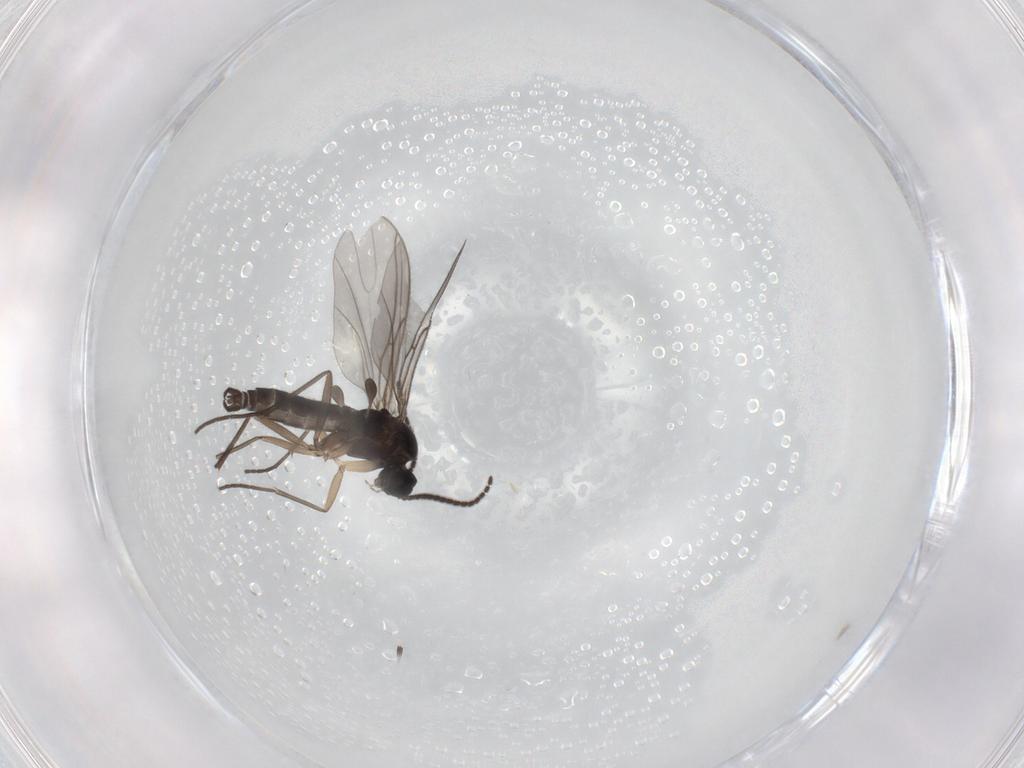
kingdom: Animalia
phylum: Arthropoda
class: Insecta
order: Diptera
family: Sciaridae
